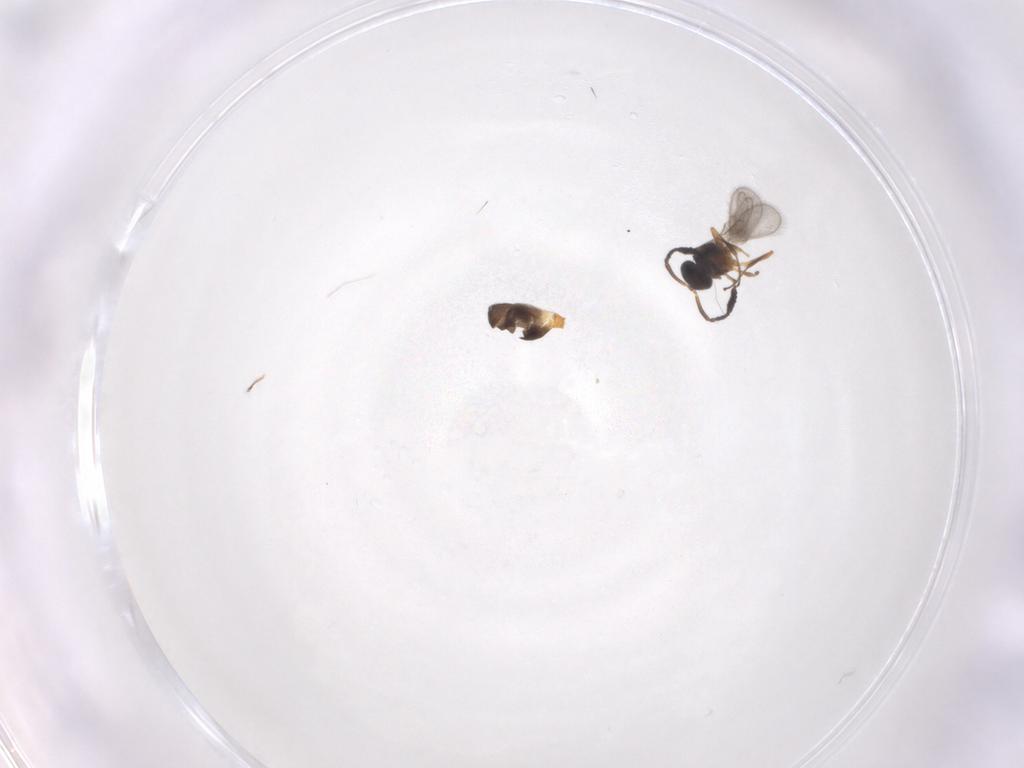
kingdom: Animalia
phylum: Arthropoda
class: Insecta
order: Hymenoptera
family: Scelionidae
